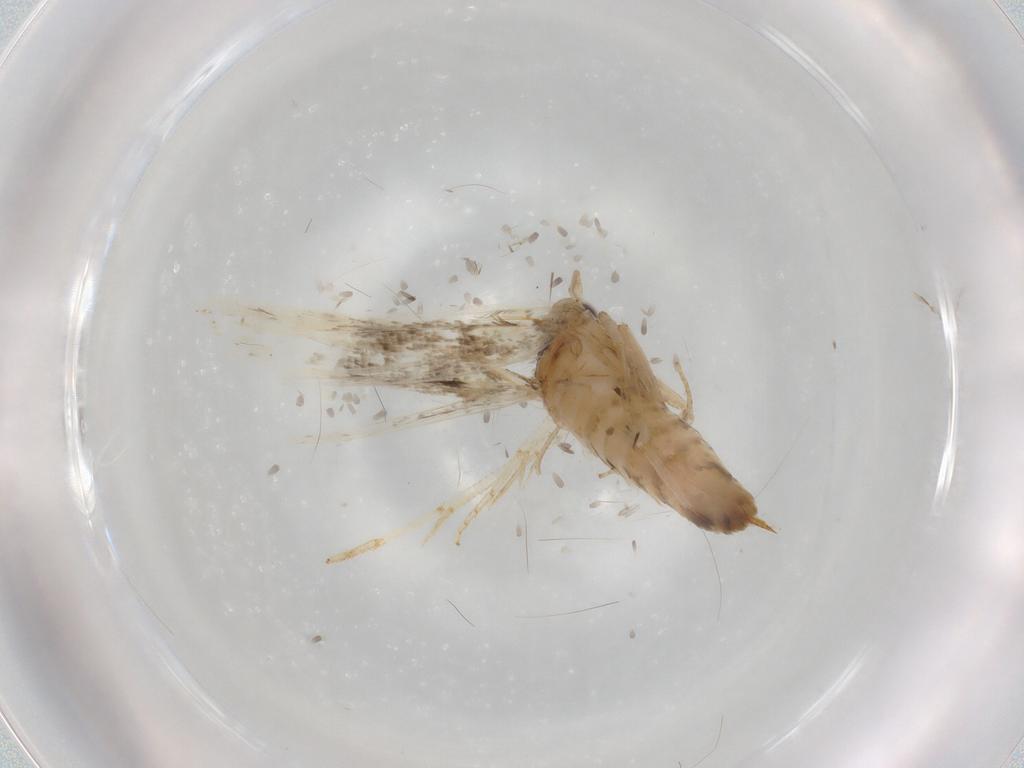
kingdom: Animalia
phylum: Arthropoda
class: Insecta
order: Lepidoptera
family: Cosmopterigidae
